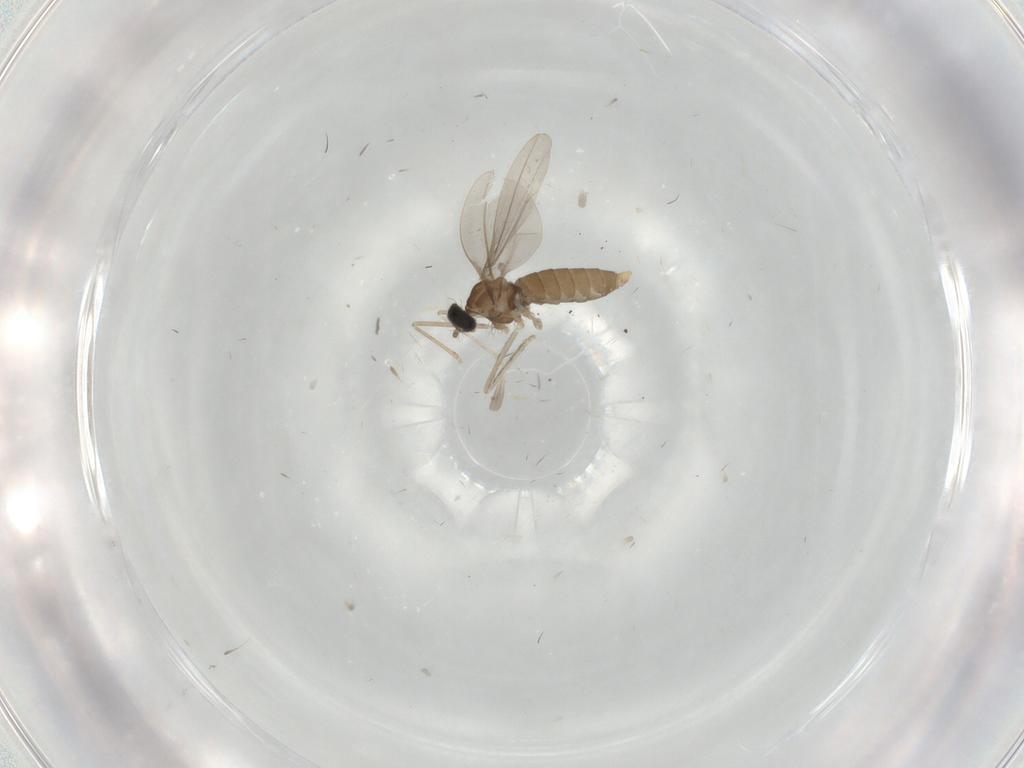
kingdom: Animalia
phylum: Arthropoda
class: Insecta
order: Diptera
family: Cecidomyiidae
